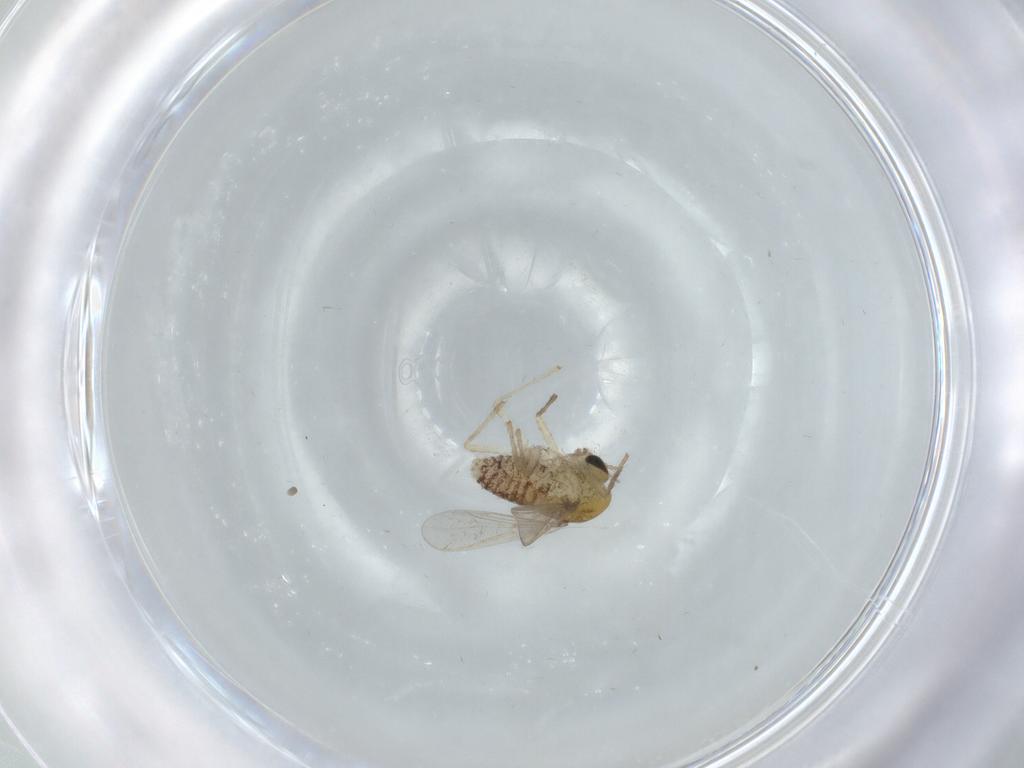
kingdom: Animalia
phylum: Arthropoda
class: Insecta
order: Diptera
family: Chironomidae
